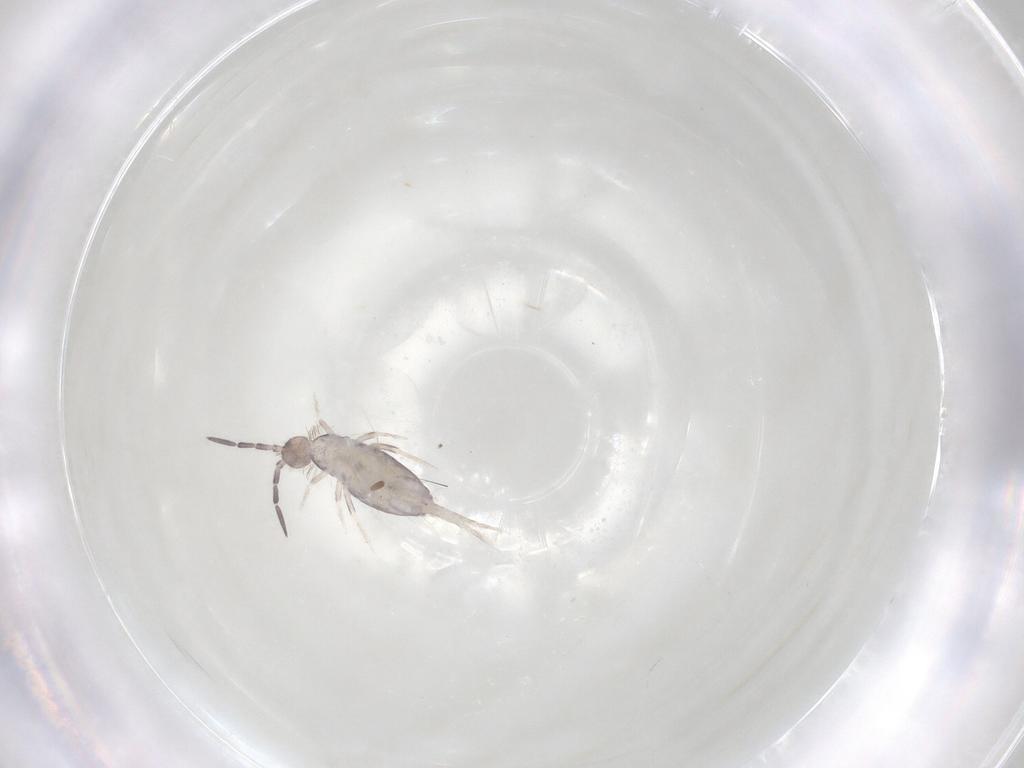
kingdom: Animalia
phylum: Arthropoda
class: Collembola
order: Poduromorpha
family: Hypogastruridae
